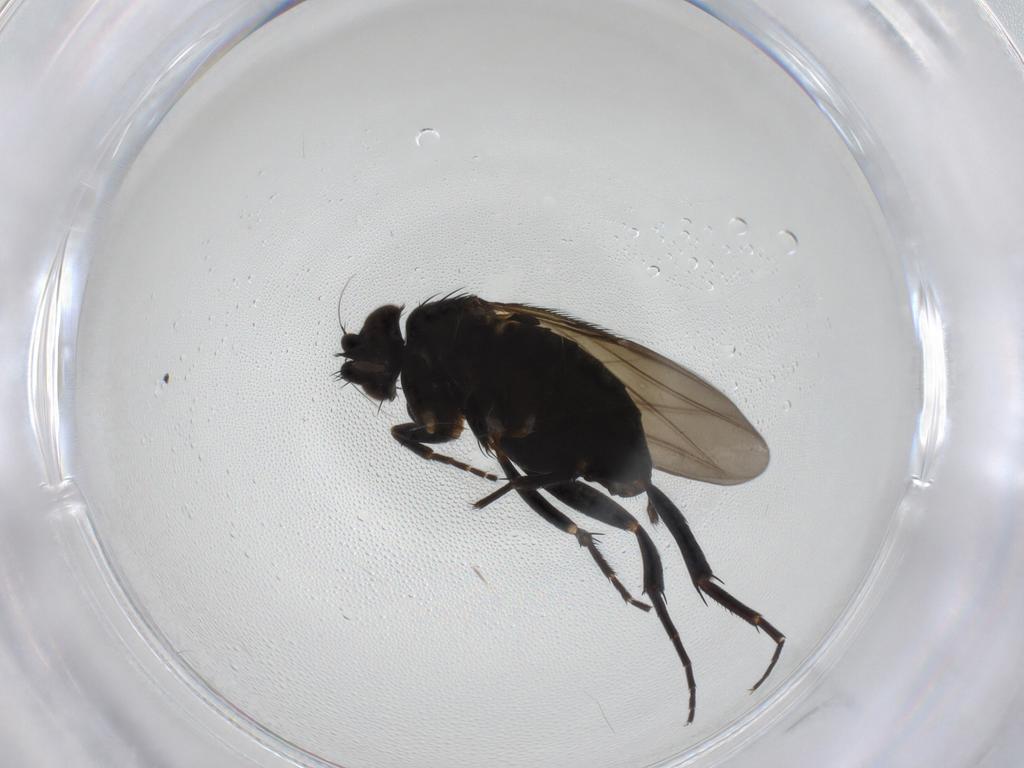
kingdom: Animalia
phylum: Arthropoda
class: Insecta
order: Diptera
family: Phoridae
